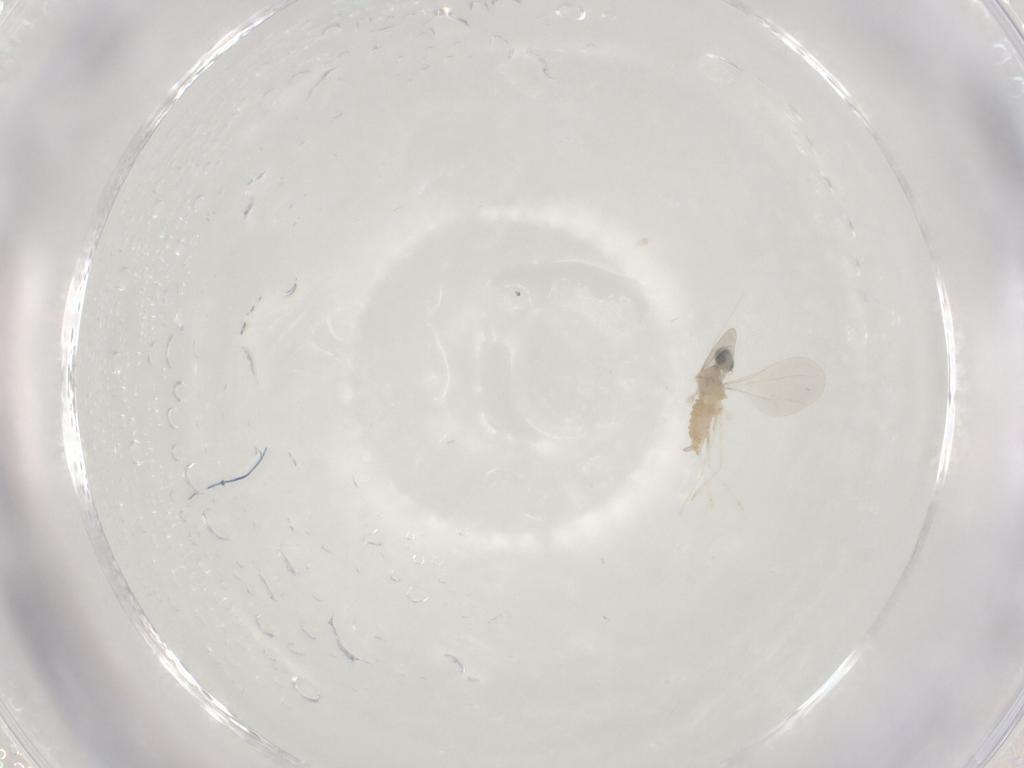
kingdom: Animalia
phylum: Arthropoda
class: Insecta
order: Diptera
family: Cecidomyiidae
